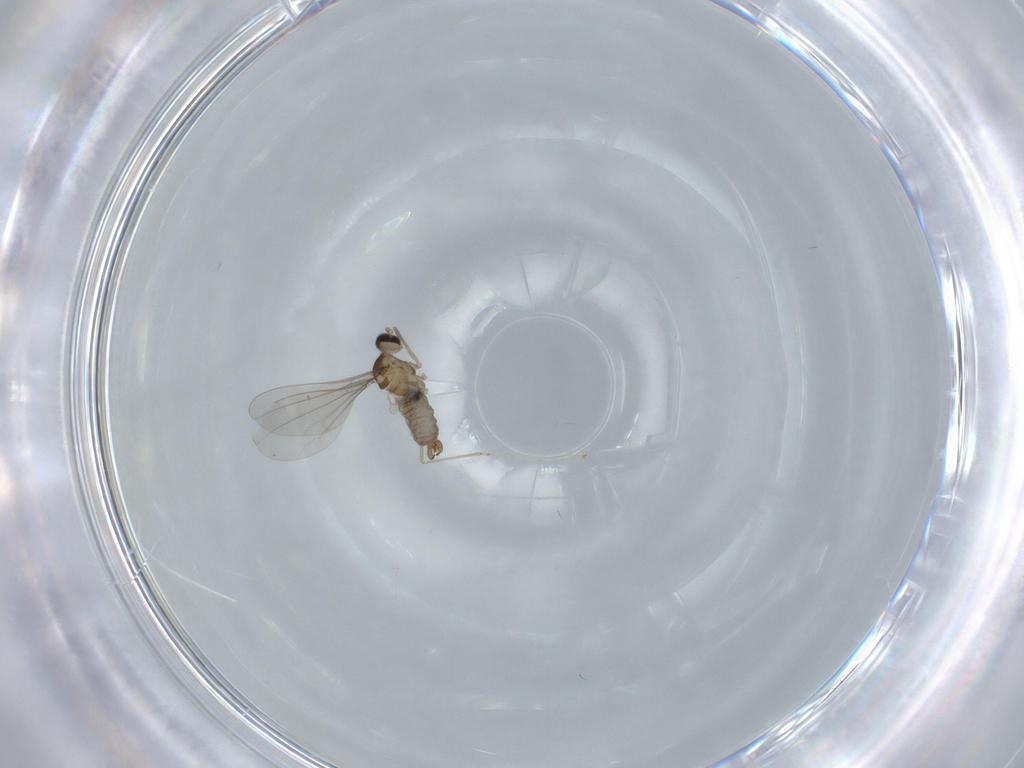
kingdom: Animalia
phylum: Arthropoda
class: Insecta
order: Diptera
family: Cecidomyiidae
